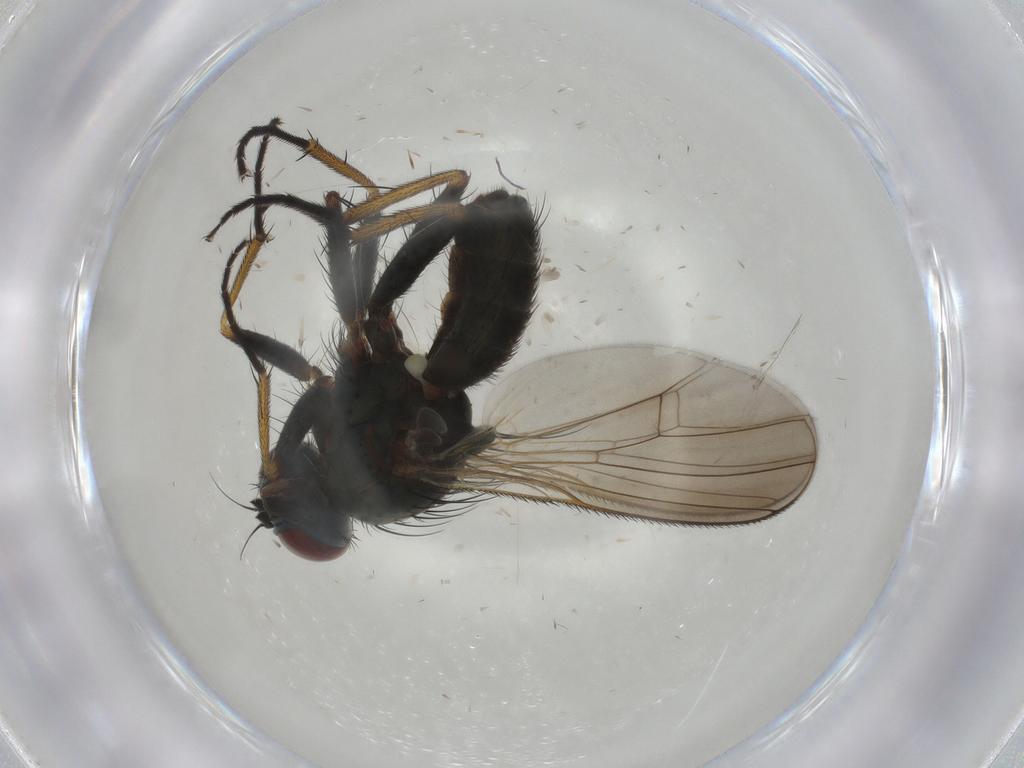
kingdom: Animalia
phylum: Arthropoda
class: Insecta
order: Diptera
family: Muscidae
